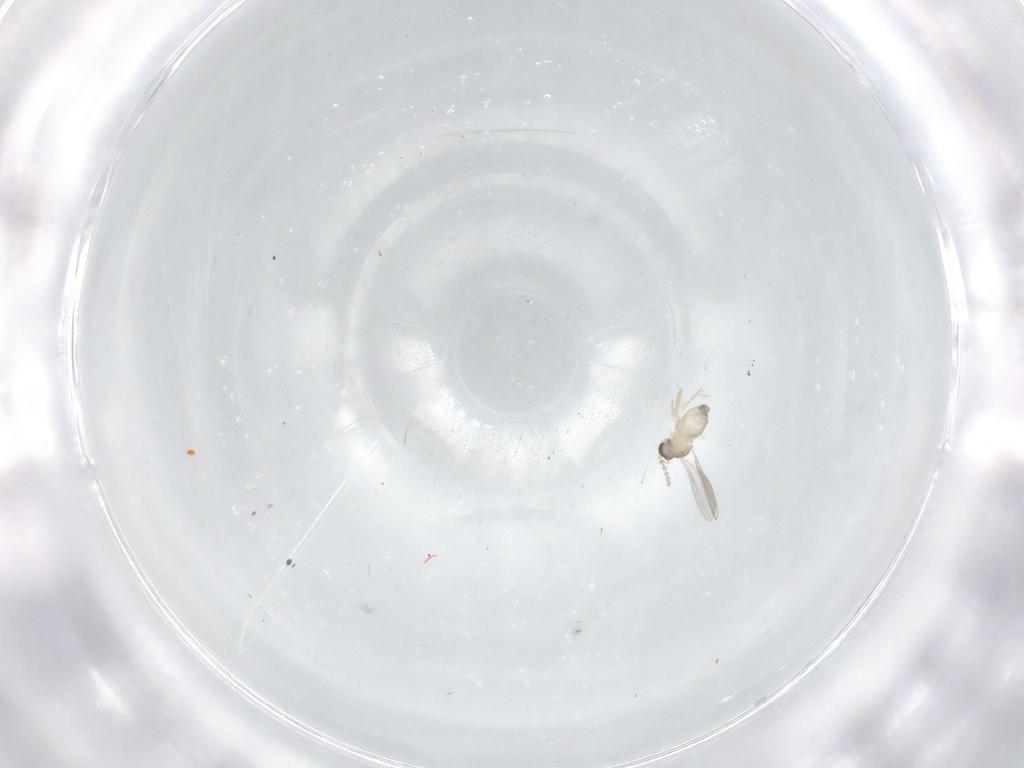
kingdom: Animalia
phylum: Arthropoda
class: Insecta
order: Diptera
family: Cecidomyiidae
